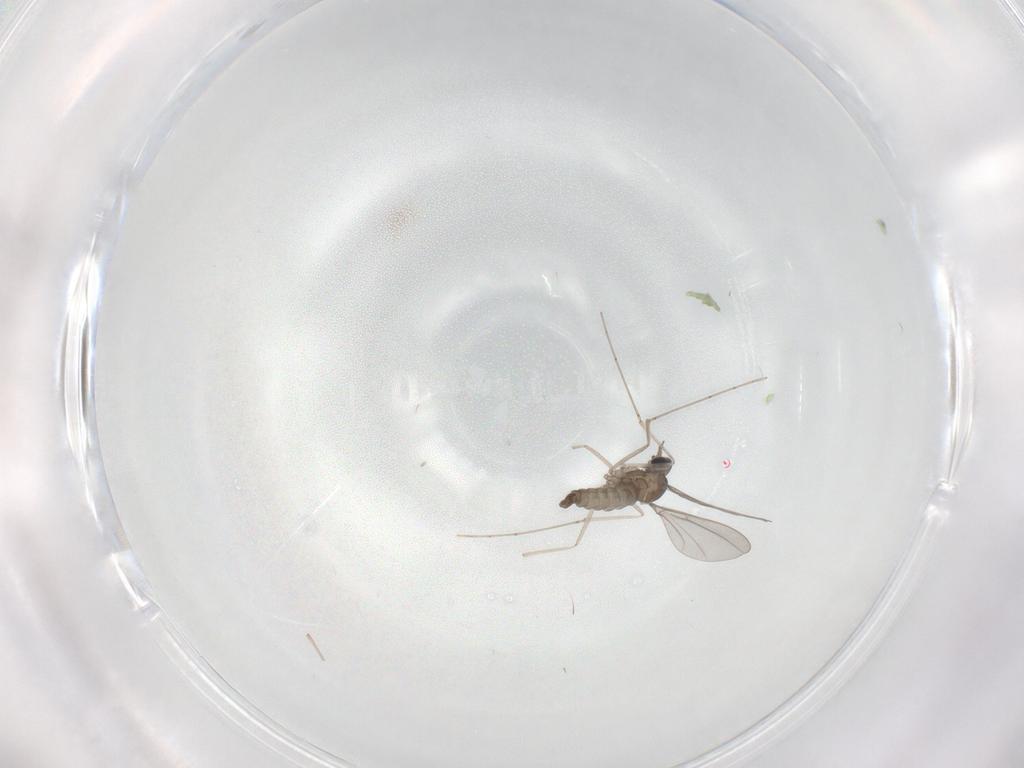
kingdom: Animalia
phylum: Arthropoda
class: Insecta
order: Diptera
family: Cecidomyiidae
